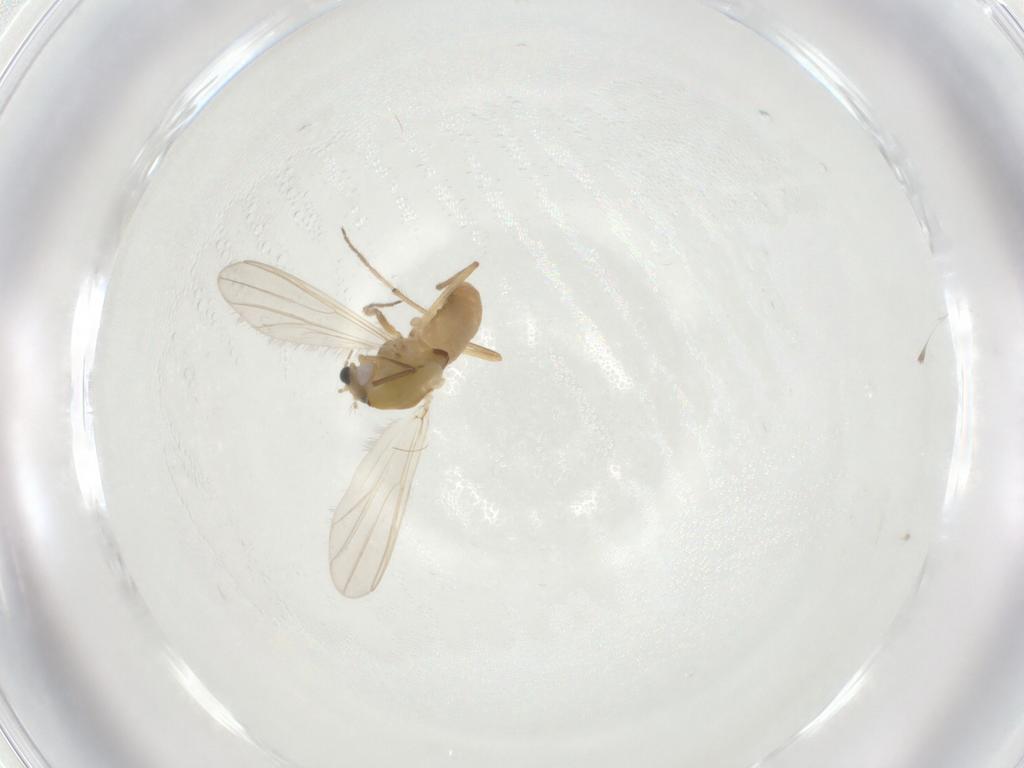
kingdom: Animalia
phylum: Arthropoda
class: Insecta
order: Diptera
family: Chironomidae
